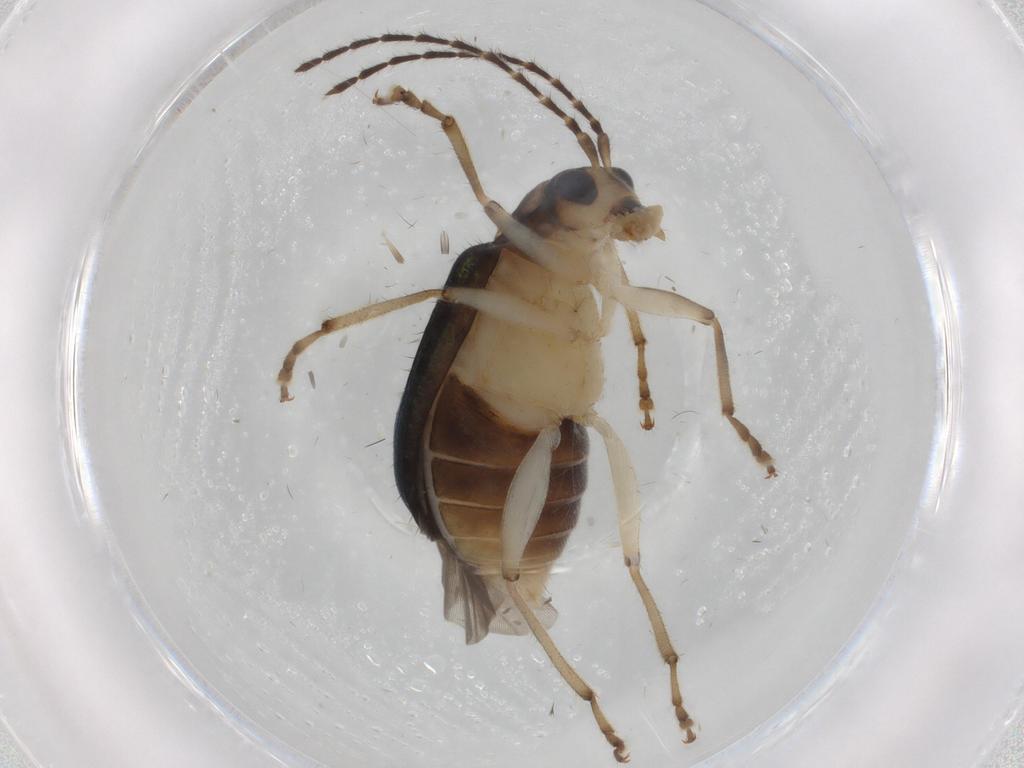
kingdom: Animalia
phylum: Arthropoda
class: Insecta
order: Coleoptera
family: Chrysomelidae
